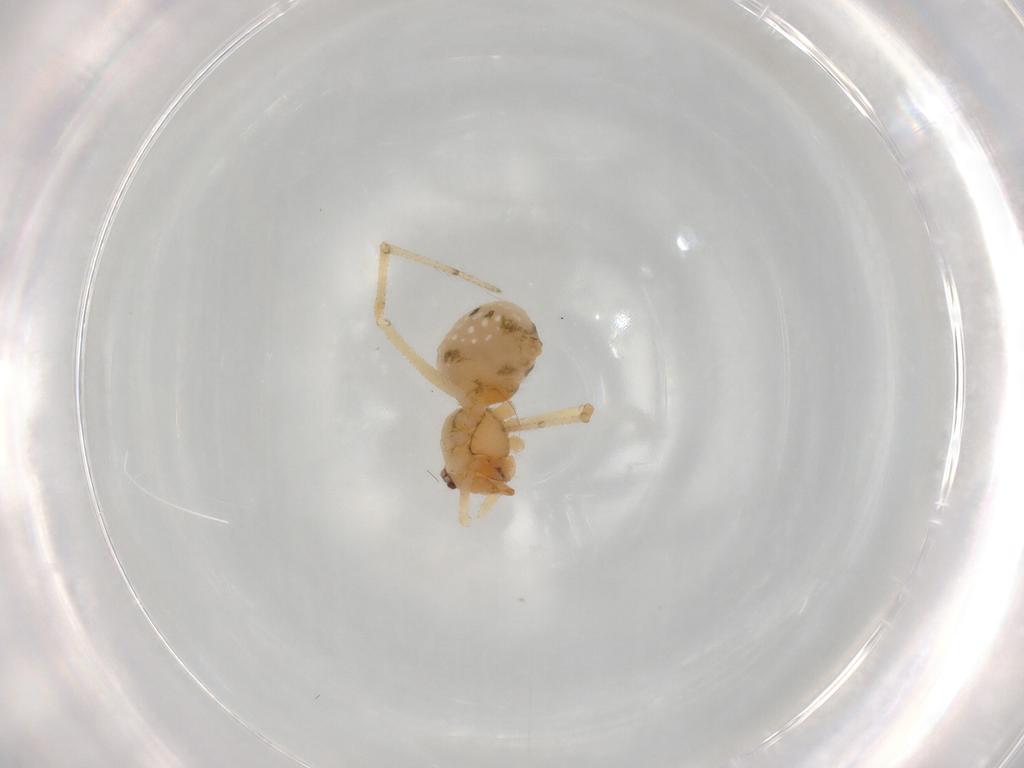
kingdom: Animalia
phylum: Arthropoda
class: Arachnida
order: Araneae
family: Theridiidae
